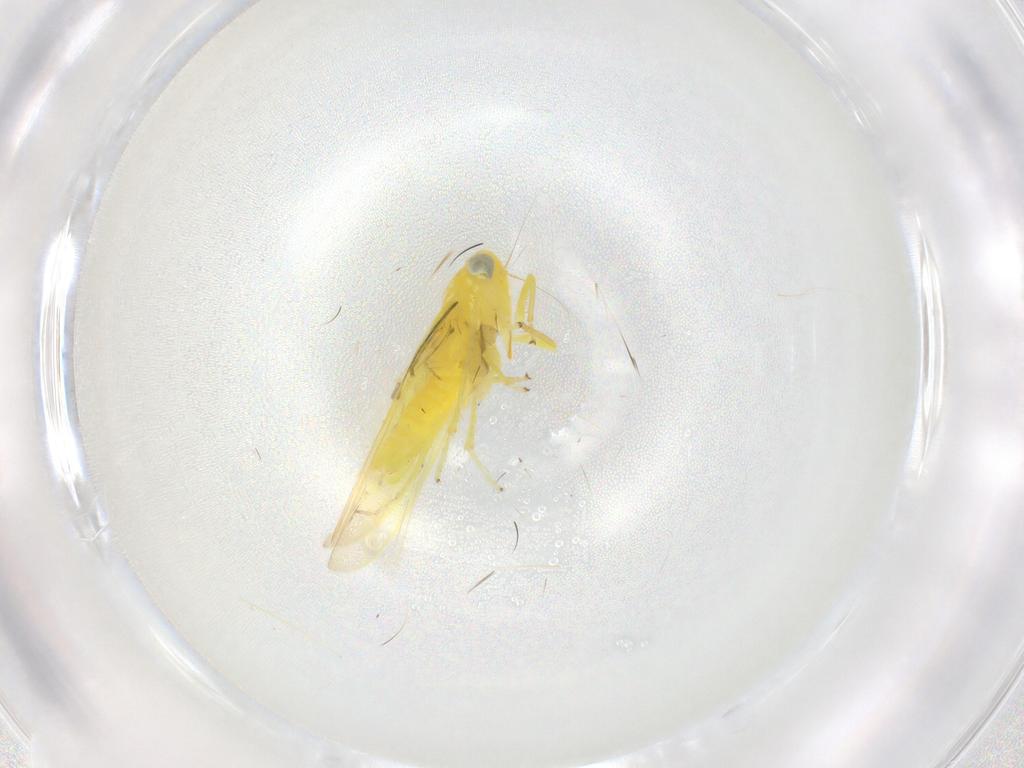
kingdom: Animalia
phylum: Arthropoda
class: Insecta
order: Hemiptera
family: Cicadellidae
